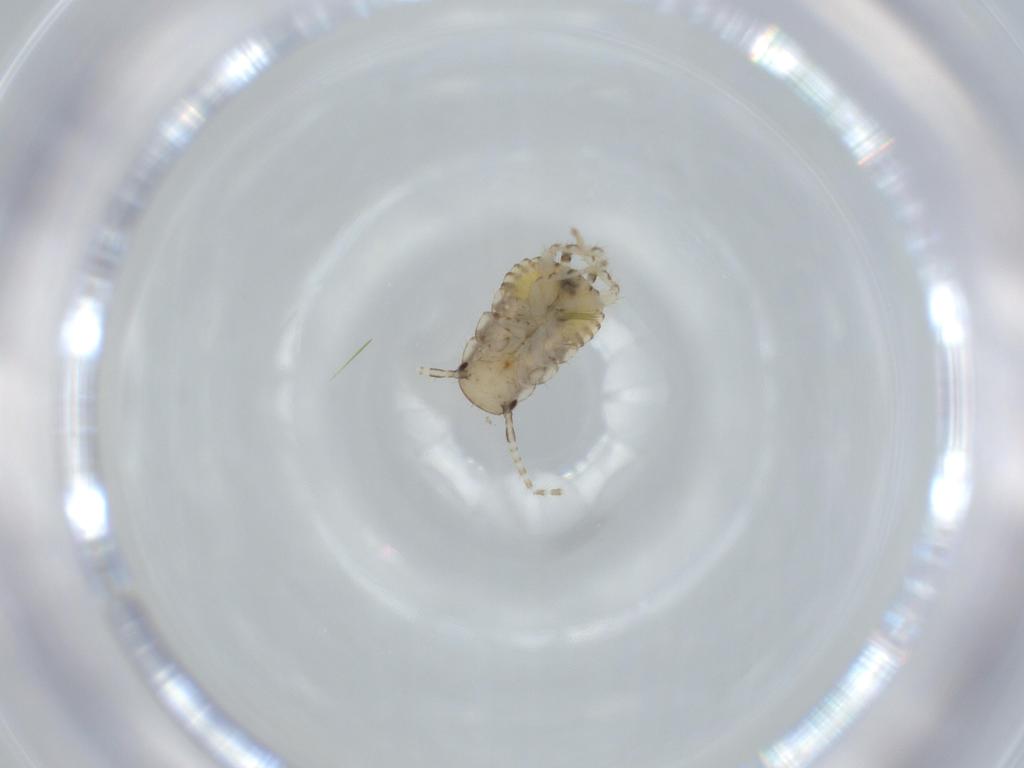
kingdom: Animalia
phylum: Arthropoda
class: Insecta
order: Blattodea
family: Ectobiidae
